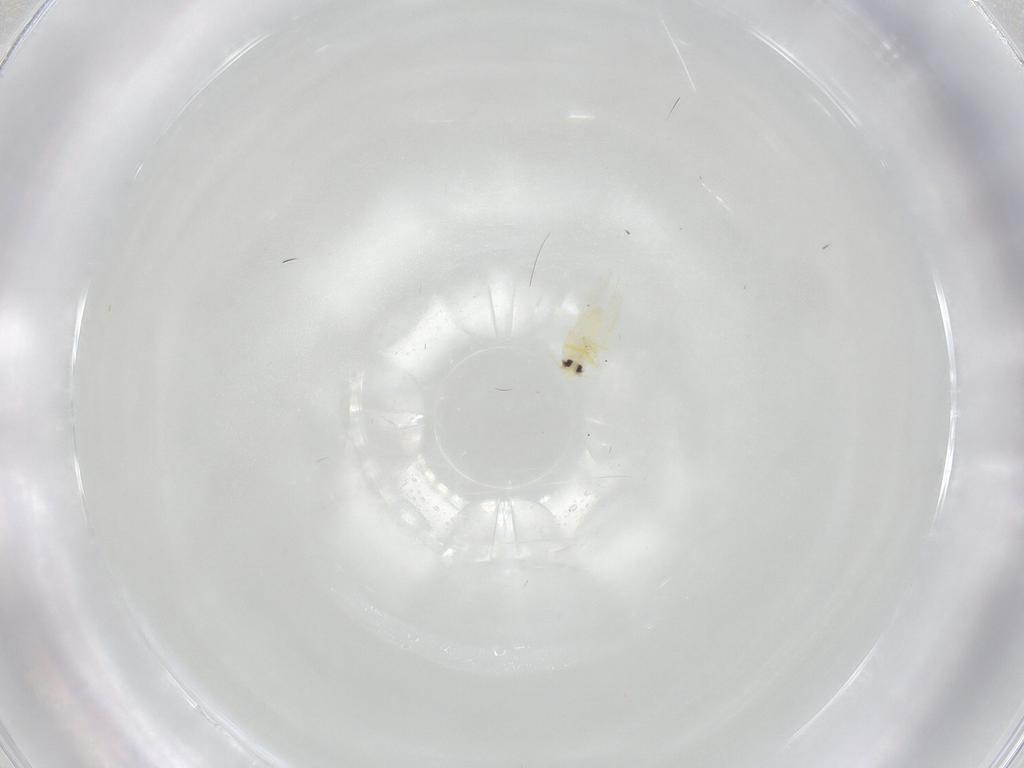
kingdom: Animalia
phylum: Arthropoda
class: Insecta
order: Hemiptera
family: Aleyrodidae
